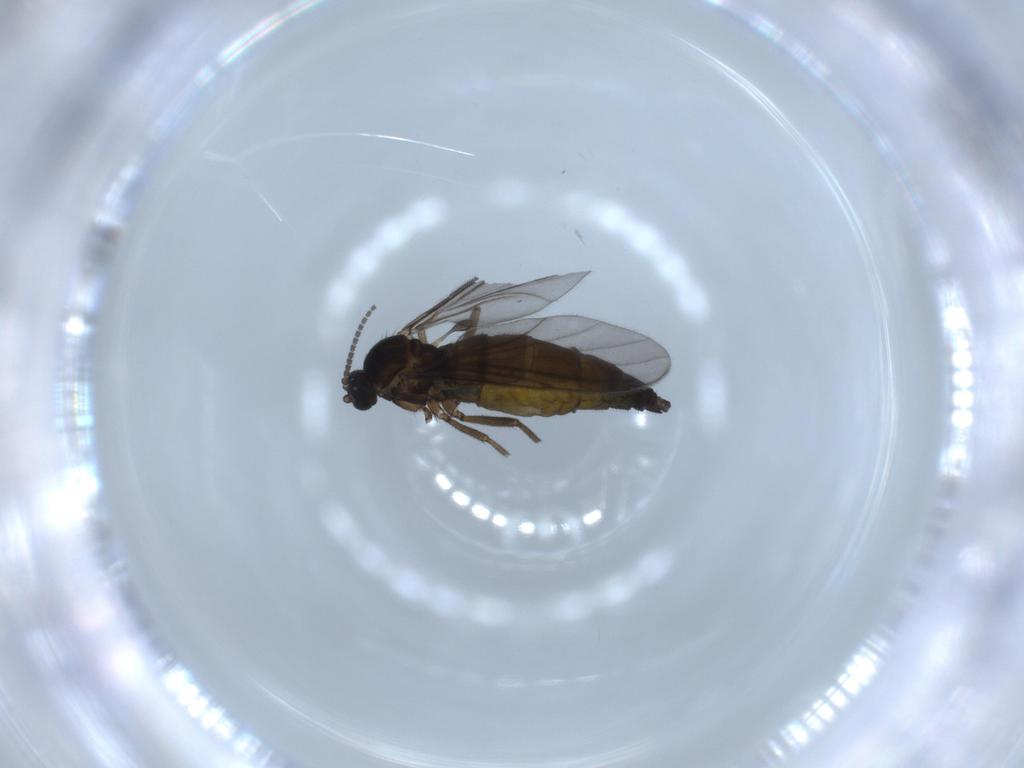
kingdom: Animalia
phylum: Arthropoda
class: Insecta
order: Diptera
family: Sciaridae
